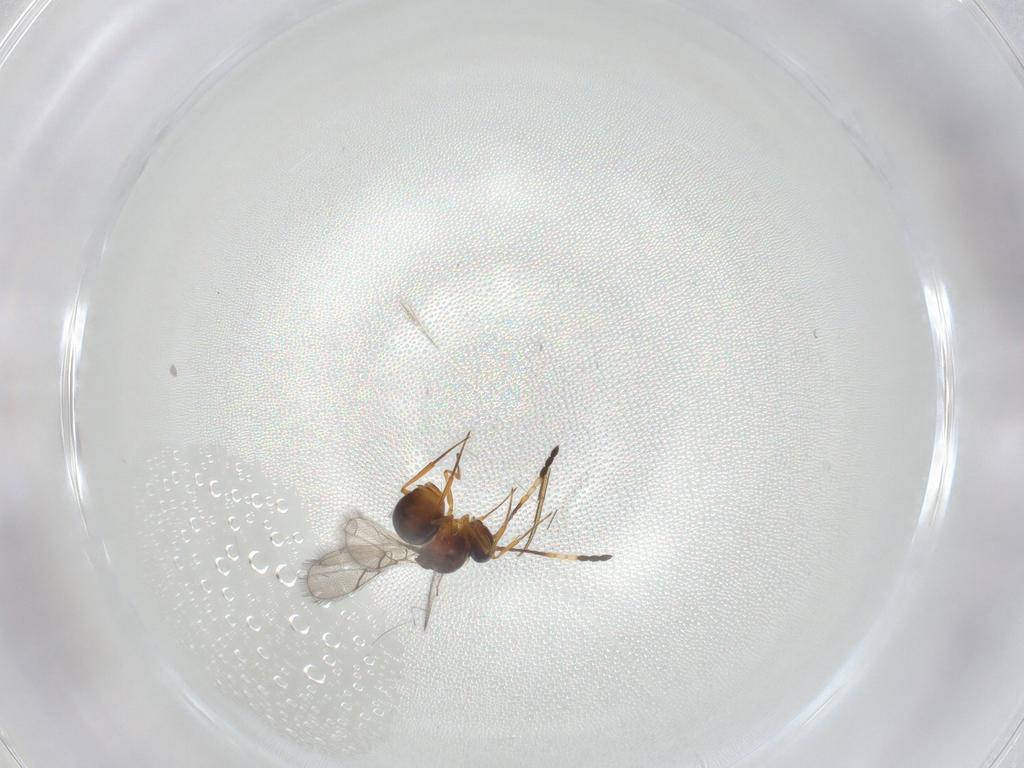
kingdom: Animalia
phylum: Arthropoda
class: Insecta
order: Hymenoptera
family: Figitidae
